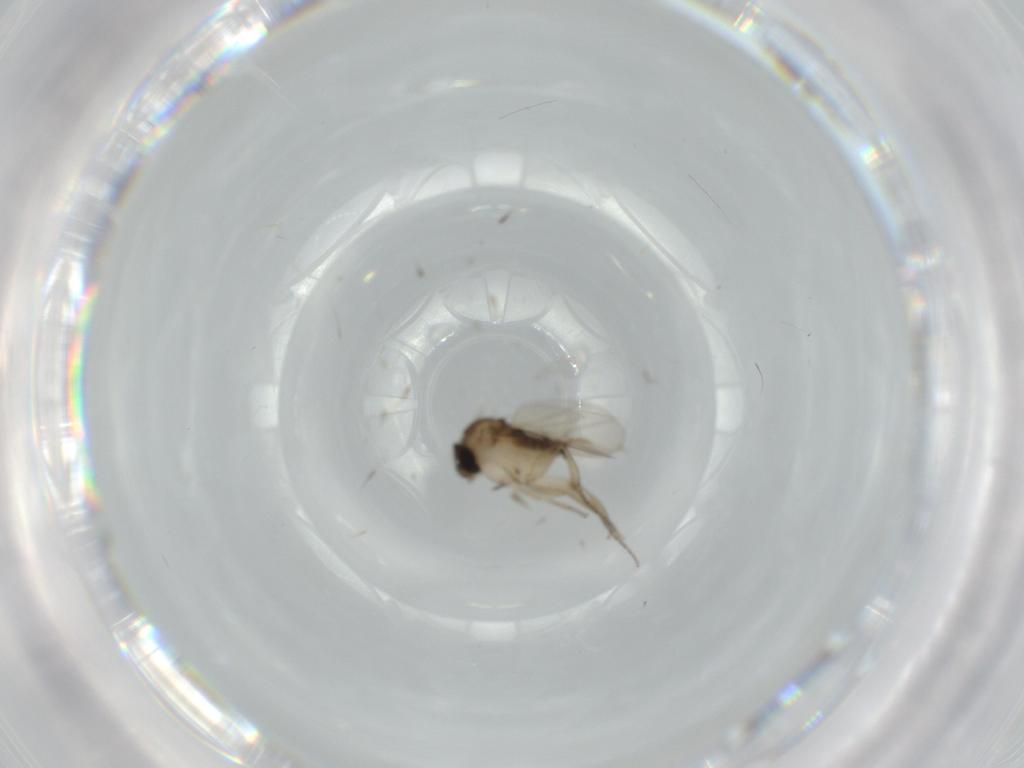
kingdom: Animalia
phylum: Arthropoda
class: Insecta
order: Diptera
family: Phoridae
